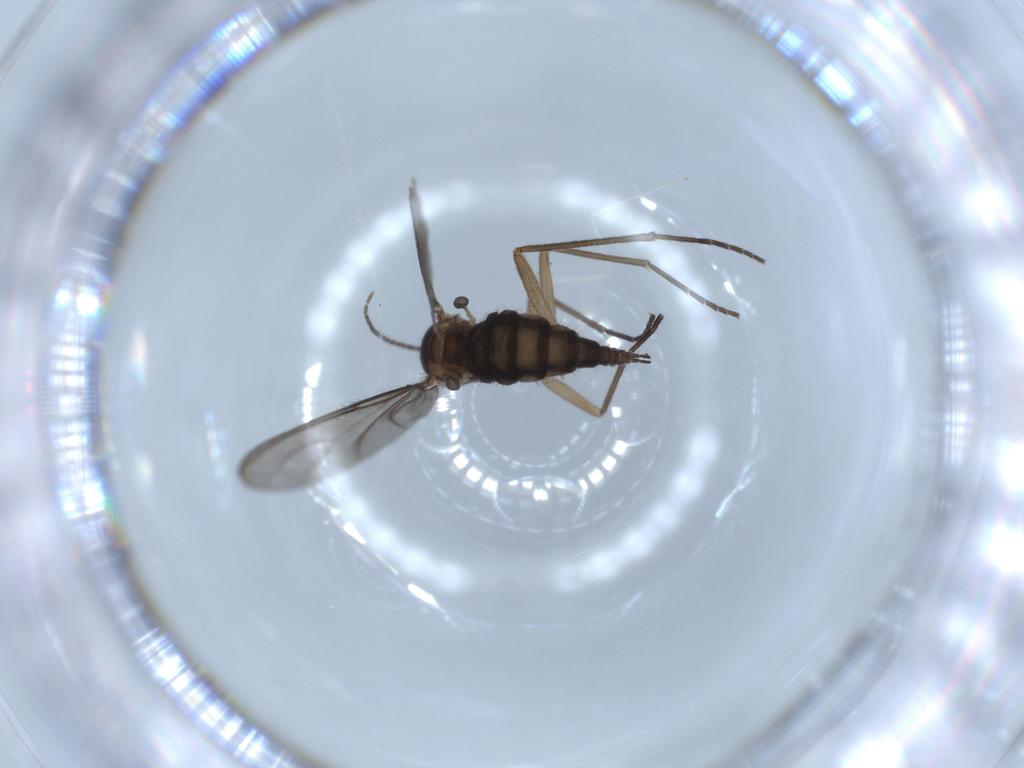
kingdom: Animalia
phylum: Arthropoda
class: Insecta
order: Diptera
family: Sciaridae
